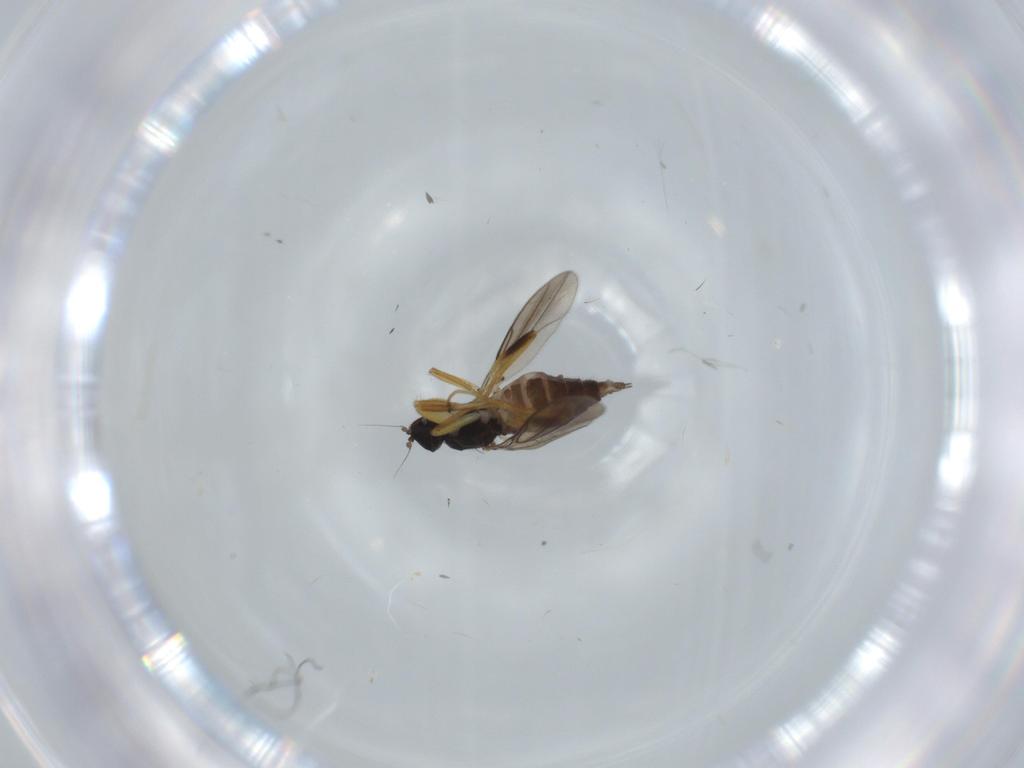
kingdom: Animalia
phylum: Arthropoda
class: Insecta
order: Diptera
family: Hybotidae
